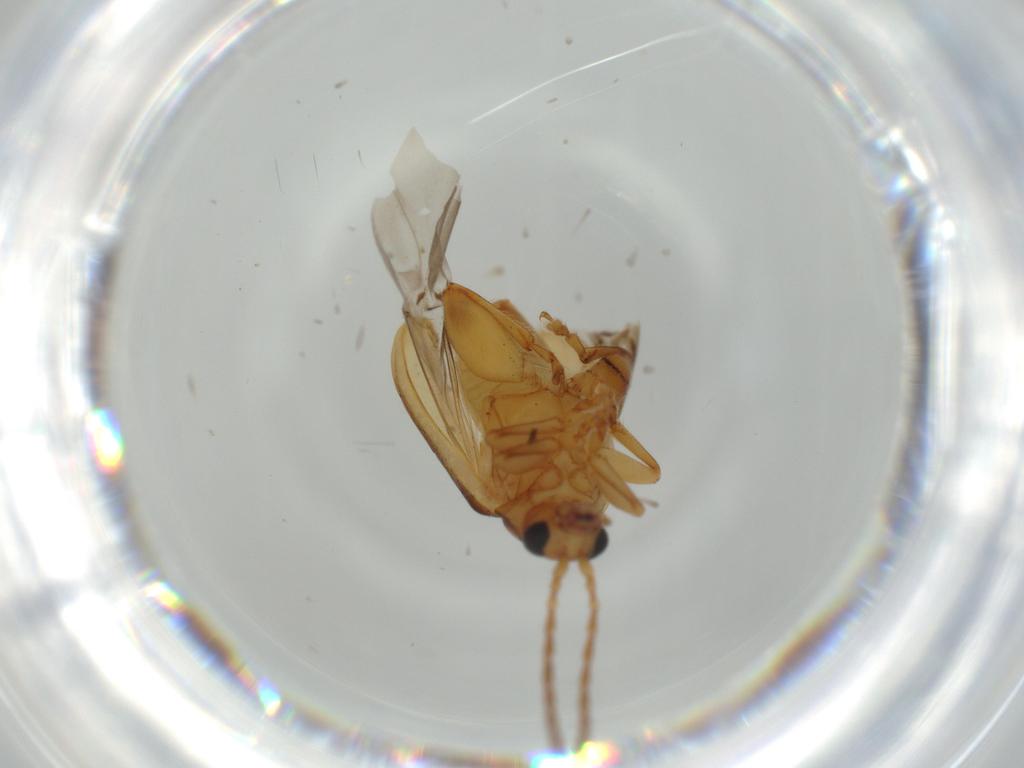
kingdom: Animalia
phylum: Arthropoda
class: Insecta
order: Coleoptera
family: Chrysomelidae
